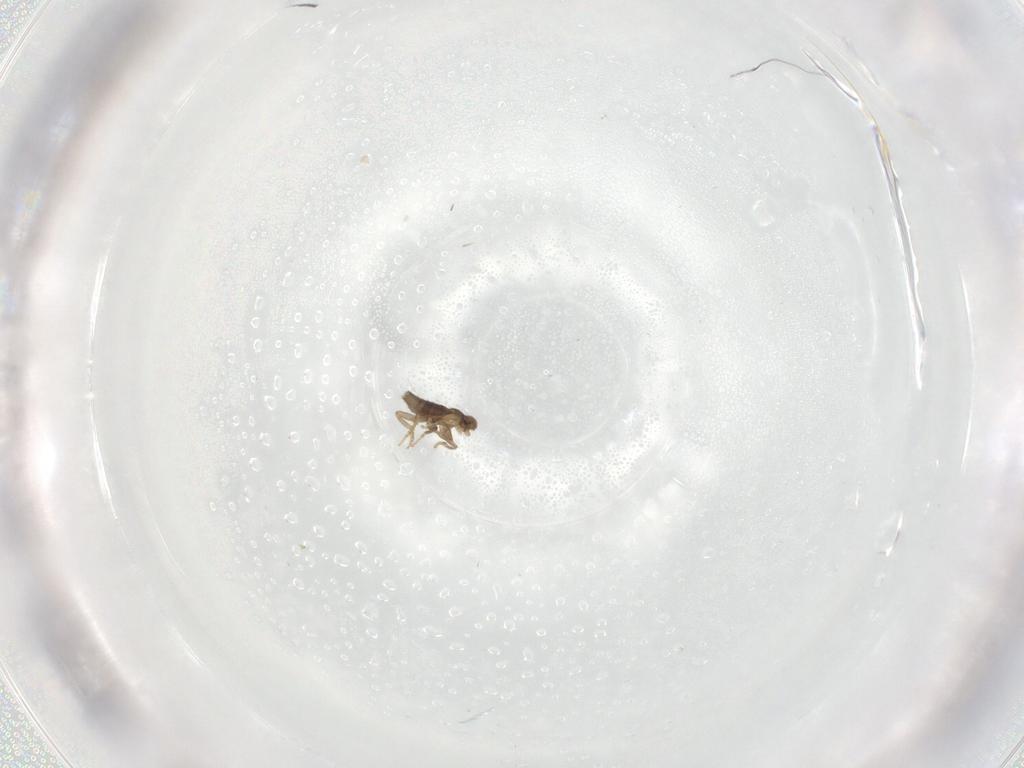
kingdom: Animalia
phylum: Arthropoda
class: Insecta
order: Diptera
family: Chironomidae
